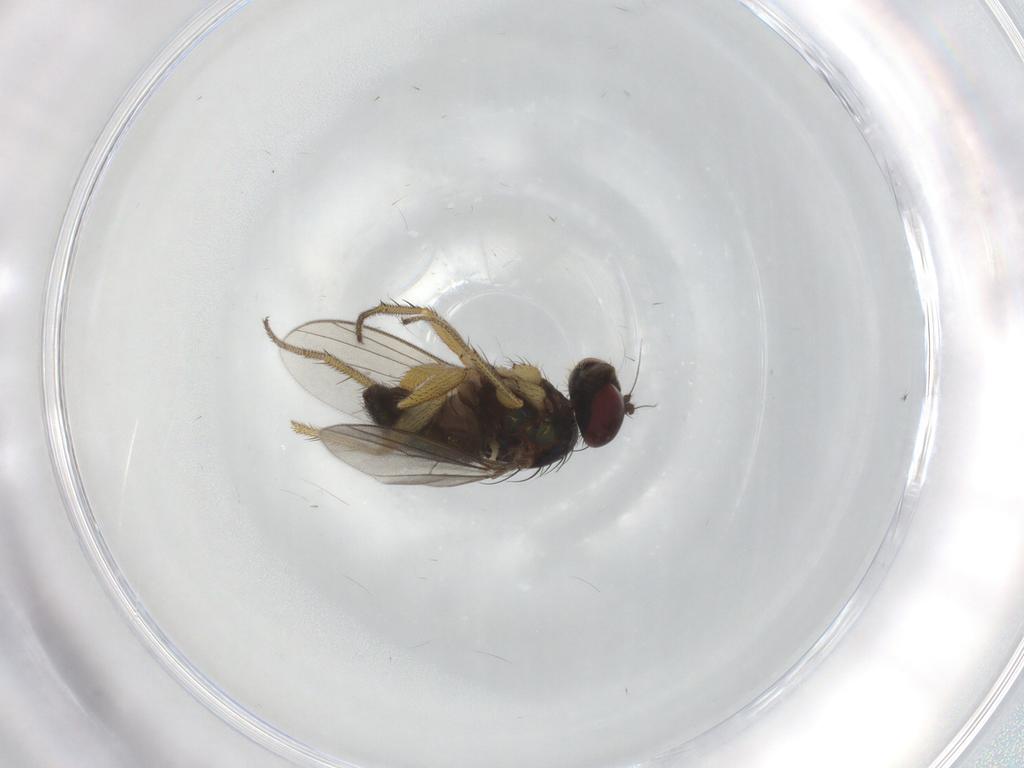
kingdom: Animalia
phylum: Arthropoda
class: Insecta
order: Diptera
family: Chironomidae
